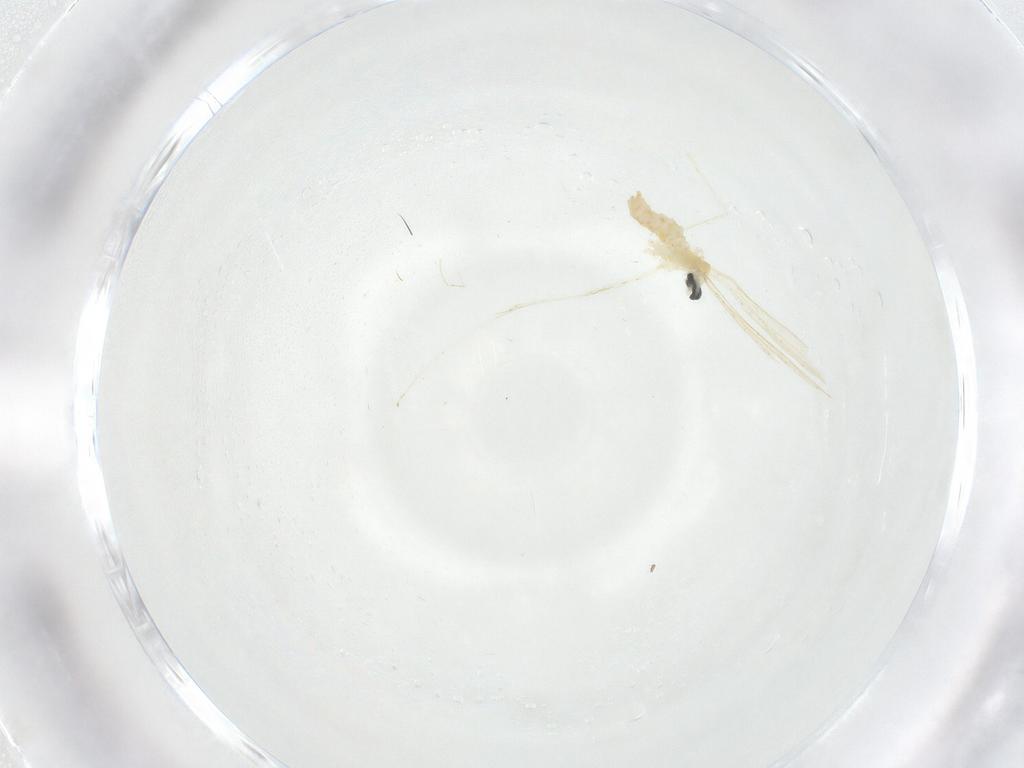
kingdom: Animalia
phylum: Arthropoda
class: Insecta
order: Diptera
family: Cecidomyiidae
